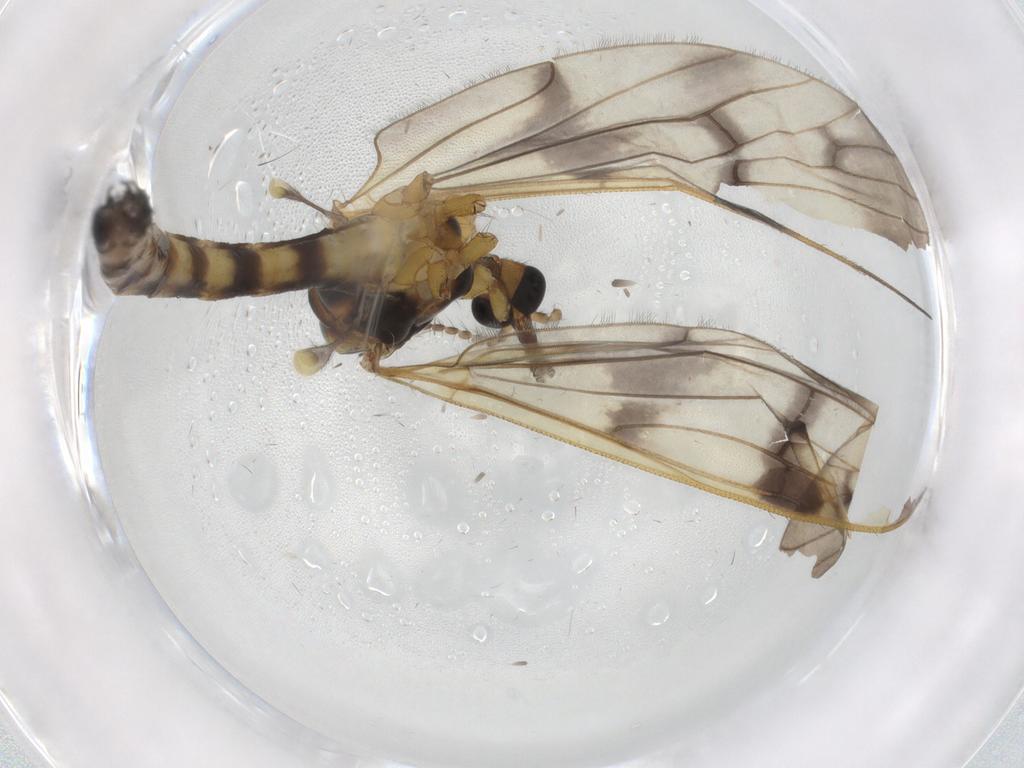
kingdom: Animalia
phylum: Arthropoda
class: Insecta
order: Diptera
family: Limoniidae
